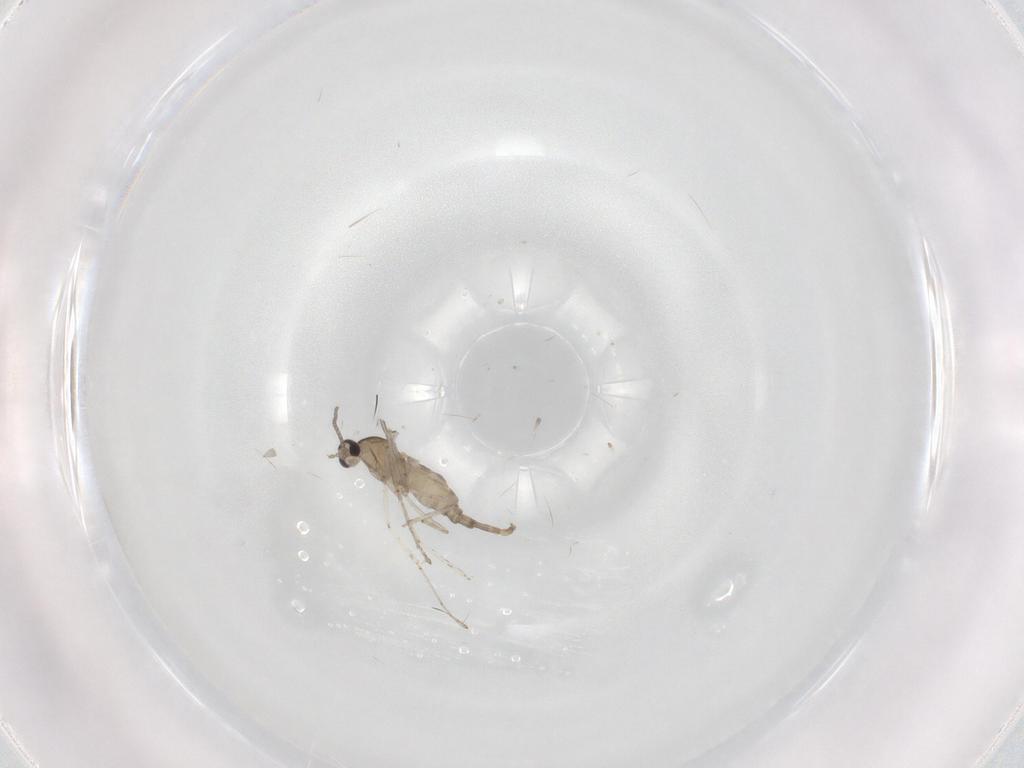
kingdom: Animalia
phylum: Arthropoda
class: Insecta
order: Diptera
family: Cecidomyiidae
